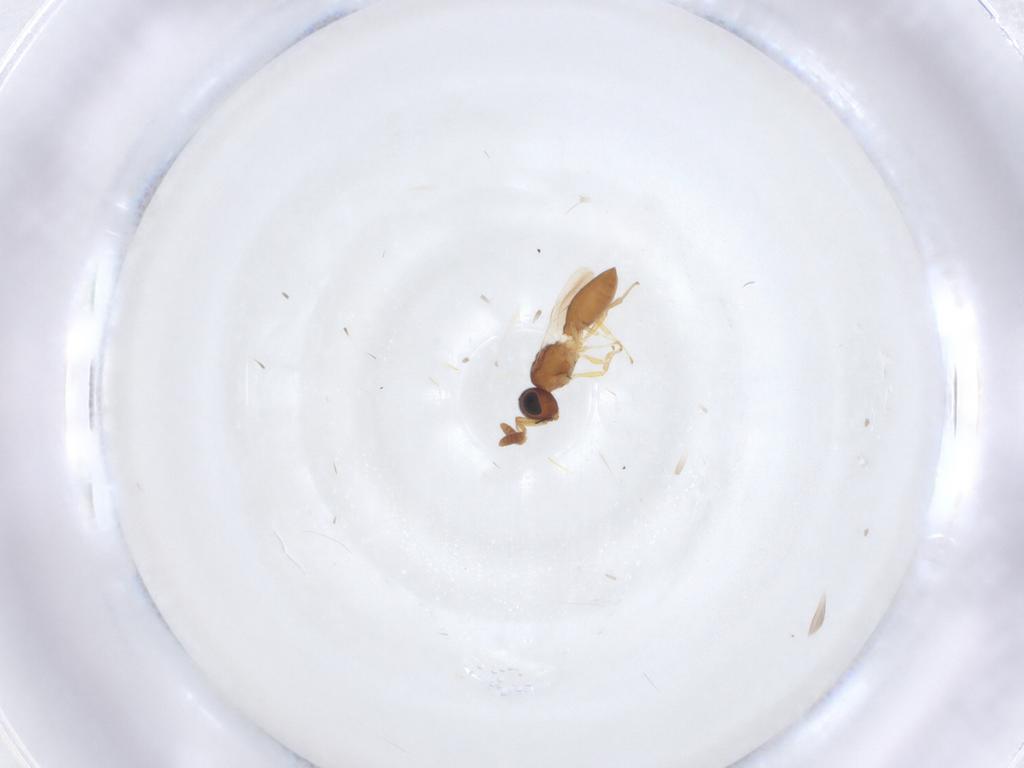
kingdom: Animalia
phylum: Arthropoda
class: Insecta
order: Hymenoptera
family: Scelionidae
